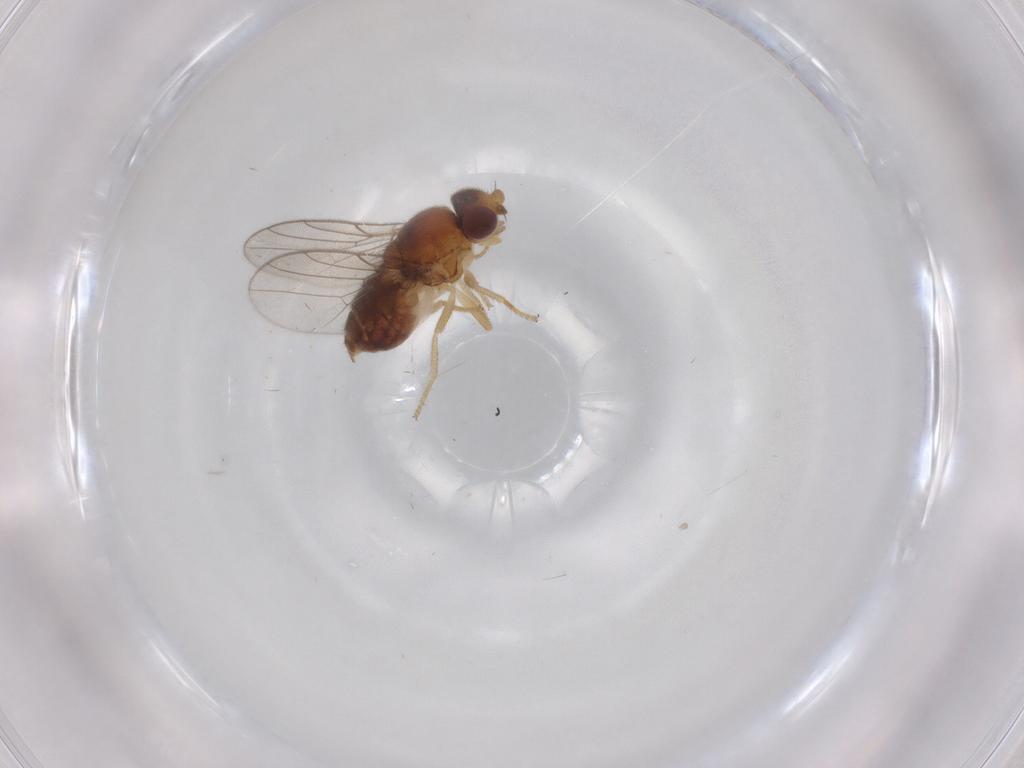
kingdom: Animalia
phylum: Arthropoda
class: Insecta
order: Diptera
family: Chloropidae
